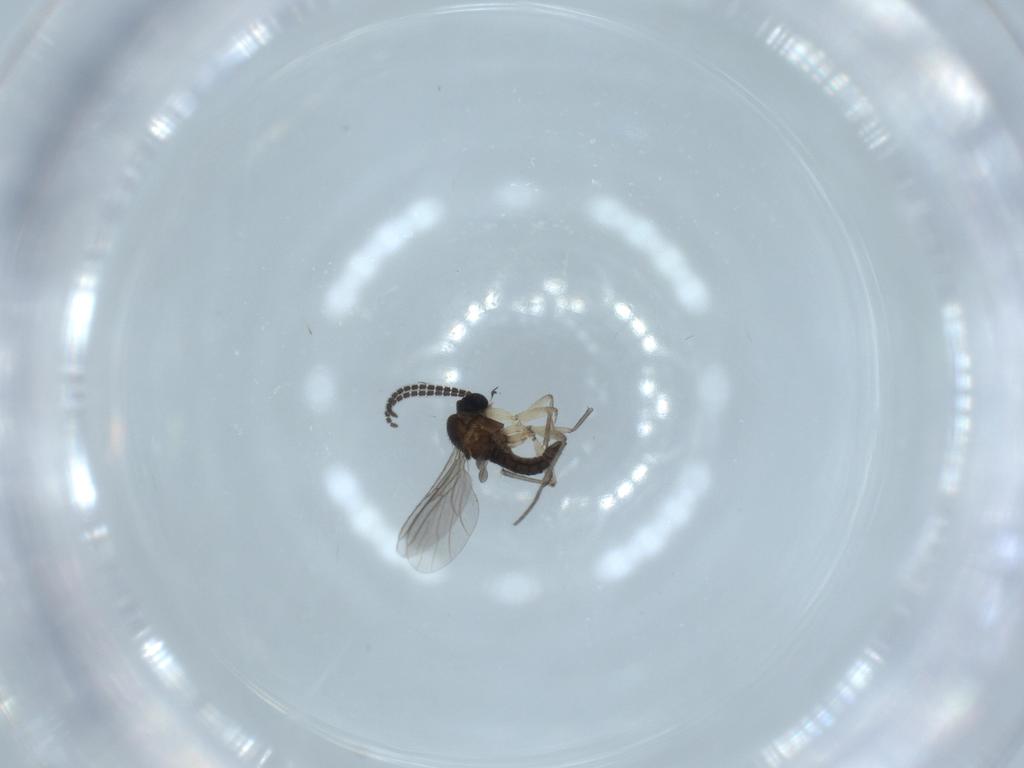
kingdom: Animalia
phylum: Arthropoda
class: Insecta
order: Diptera
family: Sciaridae
